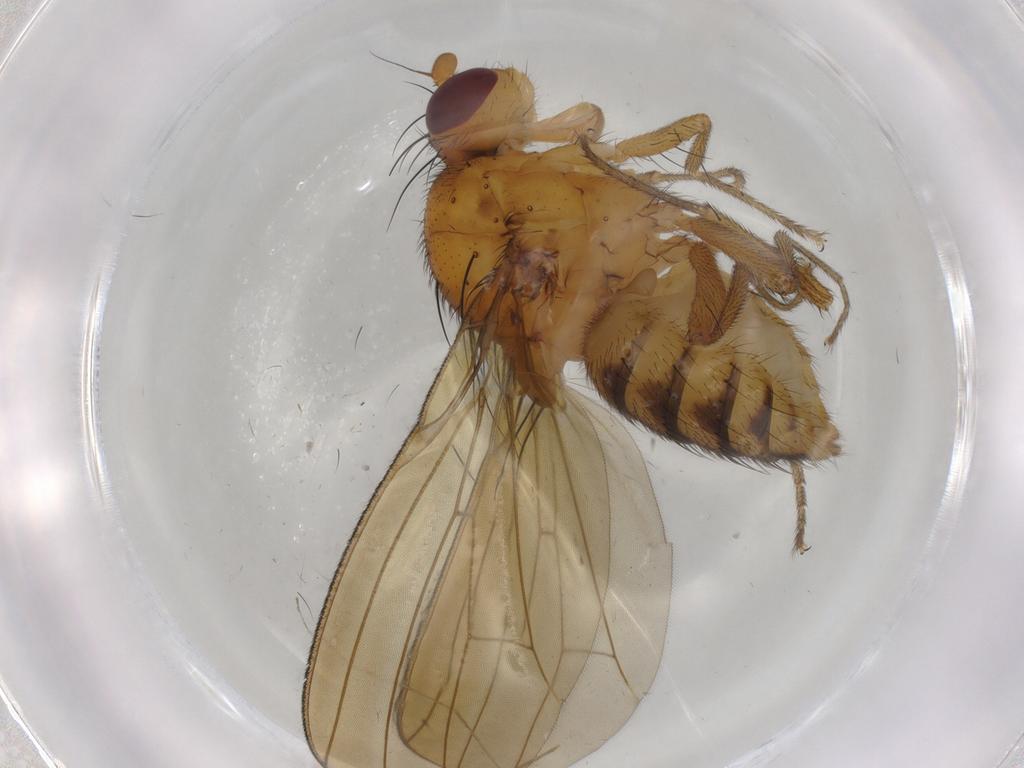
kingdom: Animalia
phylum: Arthropoda
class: Insecta
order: Diptera
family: Cecidomyiidae
